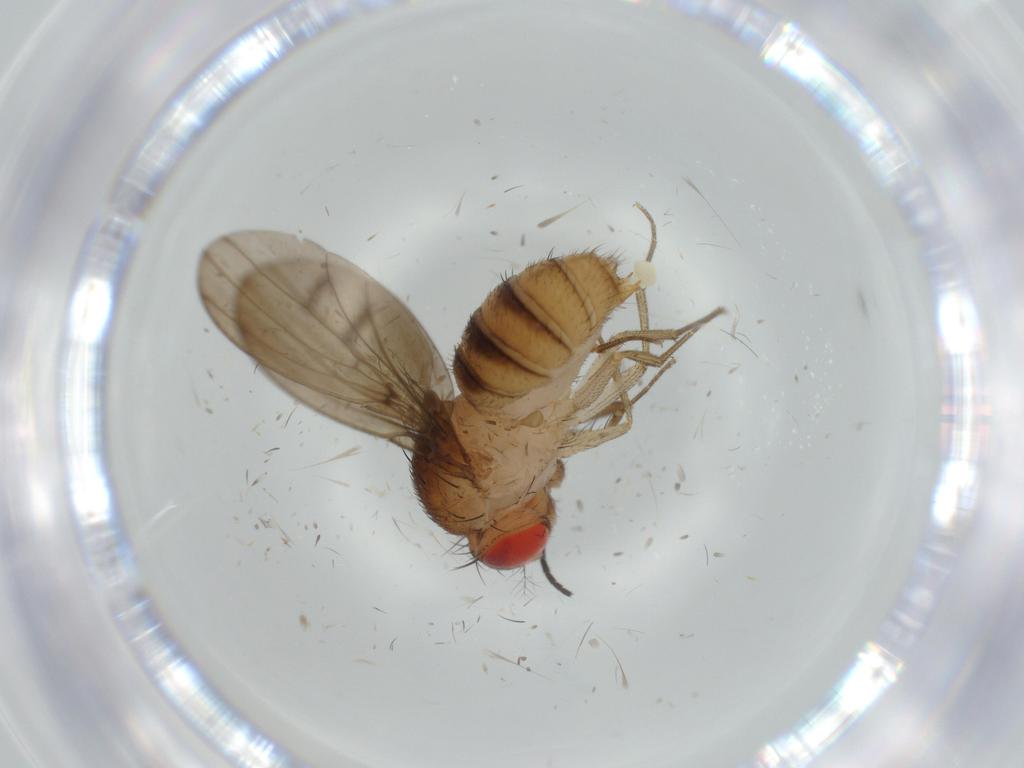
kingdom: Animalia
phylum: Arthropoda
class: Insecta
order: Diptera
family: Drosophilidae
